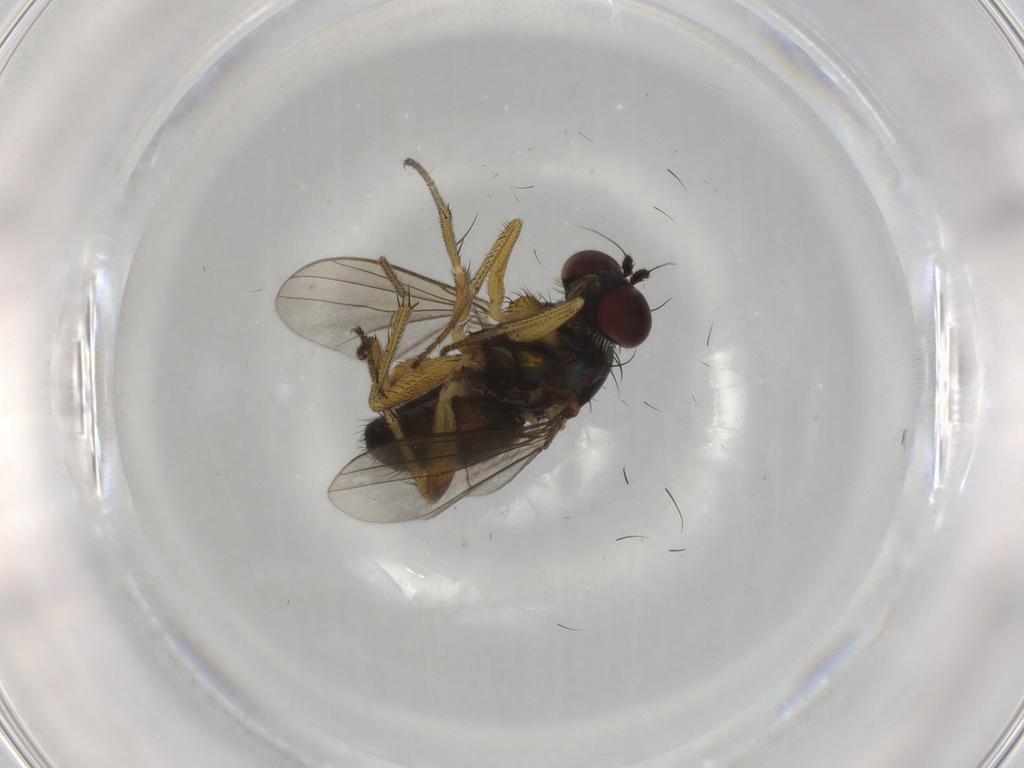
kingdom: Animalia
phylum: Arthropoda
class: Insecta
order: Diptera
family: Dolichopodidae
